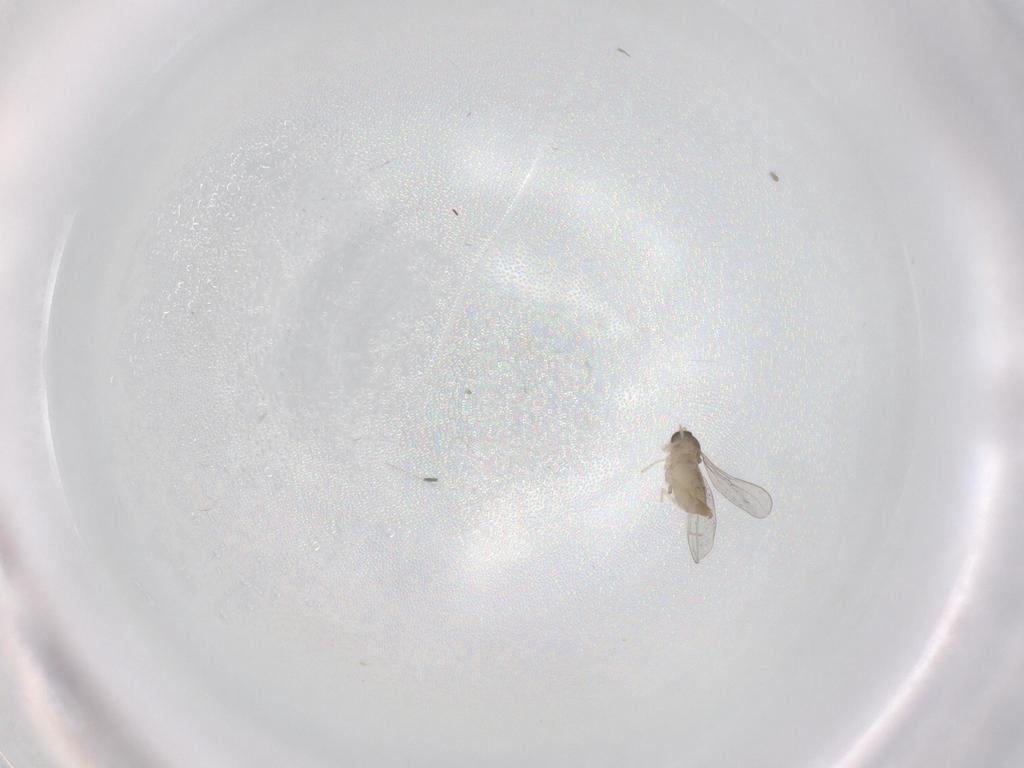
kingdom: Animalia
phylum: Arthropoda
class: Insecta
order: Diptera
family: Cecidomyiidae
